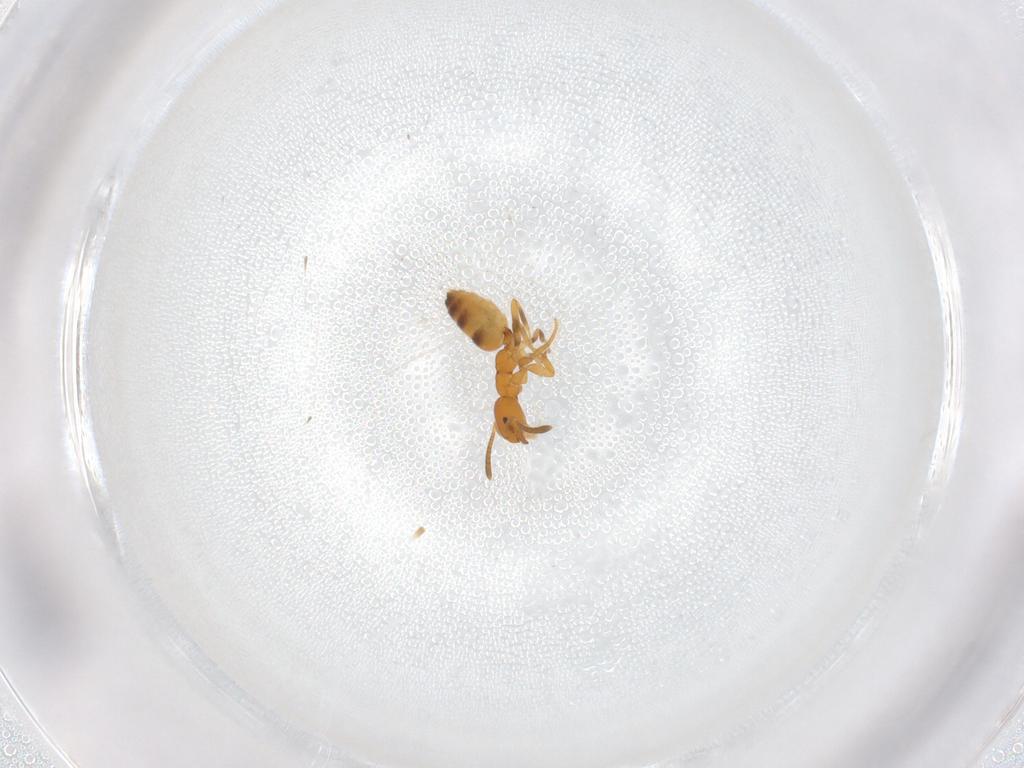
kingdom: Animalia
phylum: Arthropoda
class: Insecta
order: Hymenoptera
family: Formicidae
